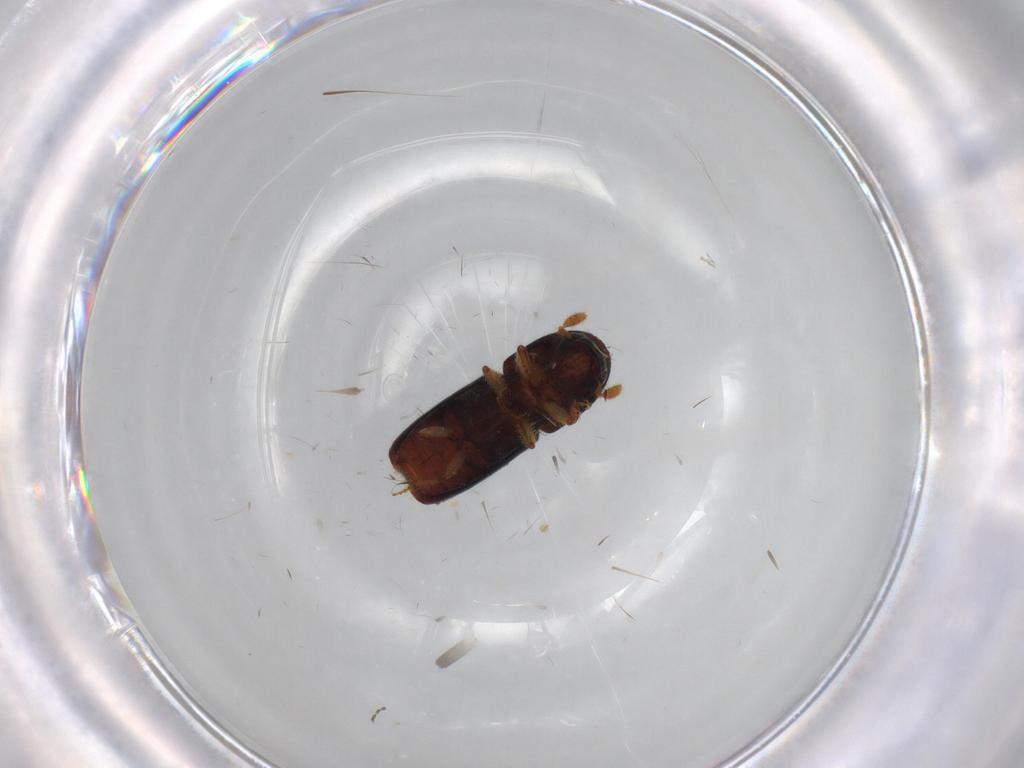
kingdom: Animalia
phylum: Arthropoda
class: Insecta
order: Coleoptera
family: Curculionidae
